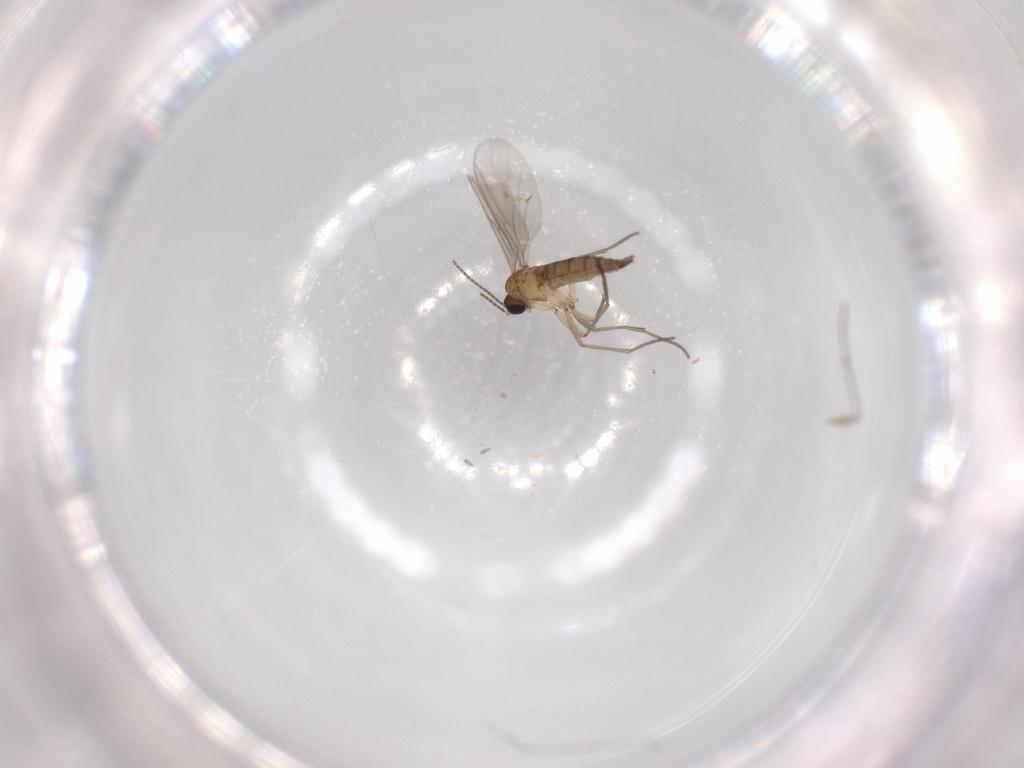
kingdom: Animalia
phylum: Arthropoda
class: Insecta
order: Diptera
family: Sciaridae
